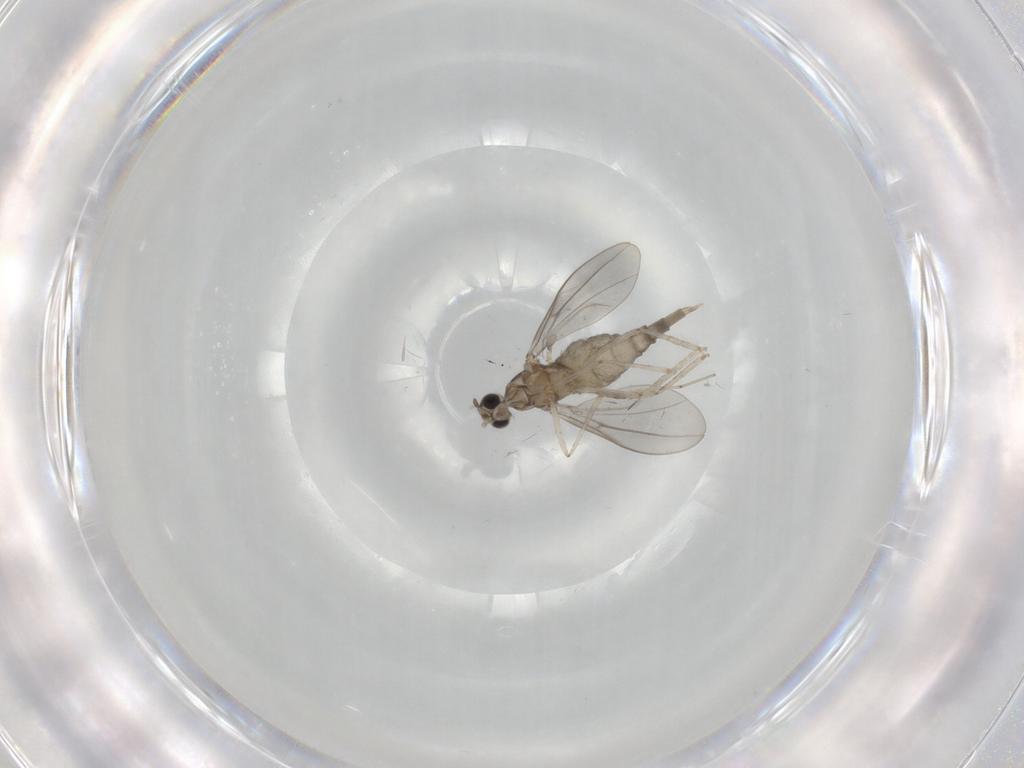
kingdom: Animalia
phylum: Arthropoda
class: Insecta
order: Diptera
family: Cecidomyiidae
